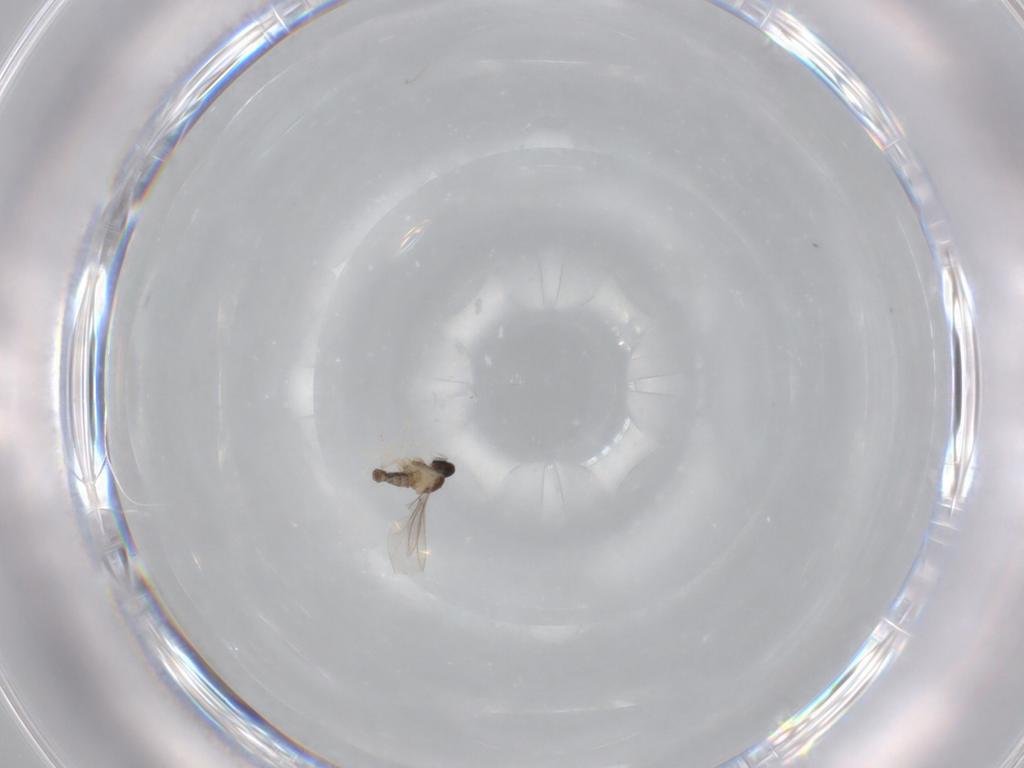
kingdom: Animalia
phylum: Arthropoda
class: Insecta
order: Diptera
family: Cecidomyiidae
